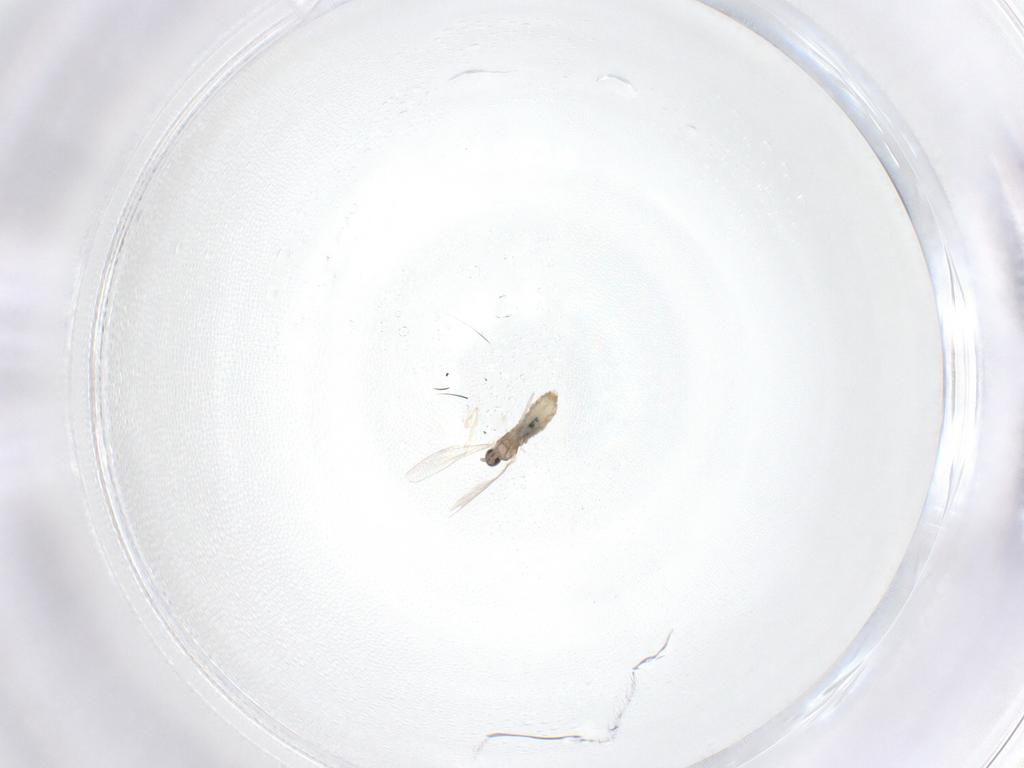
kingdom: Animalia
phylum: Arthropoda
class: Insecta
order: Diptera
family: Cecidomyiidae
